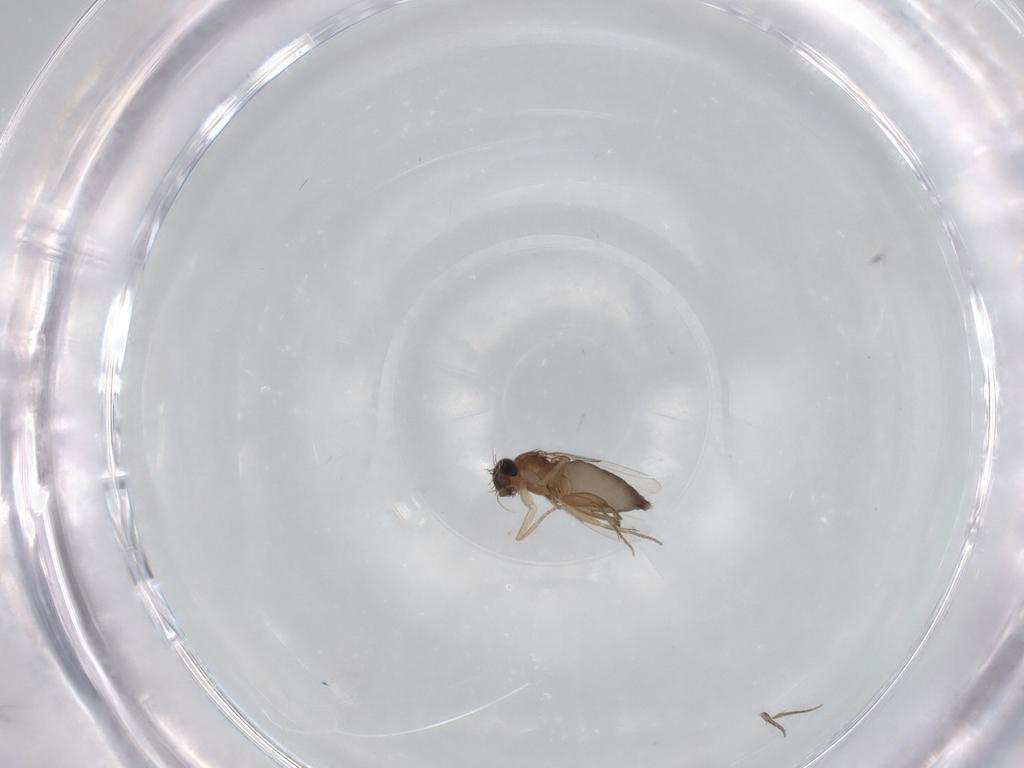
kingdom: Animalia
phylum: Arthropoda
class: Insecta
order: Diptera
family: Phoridae
